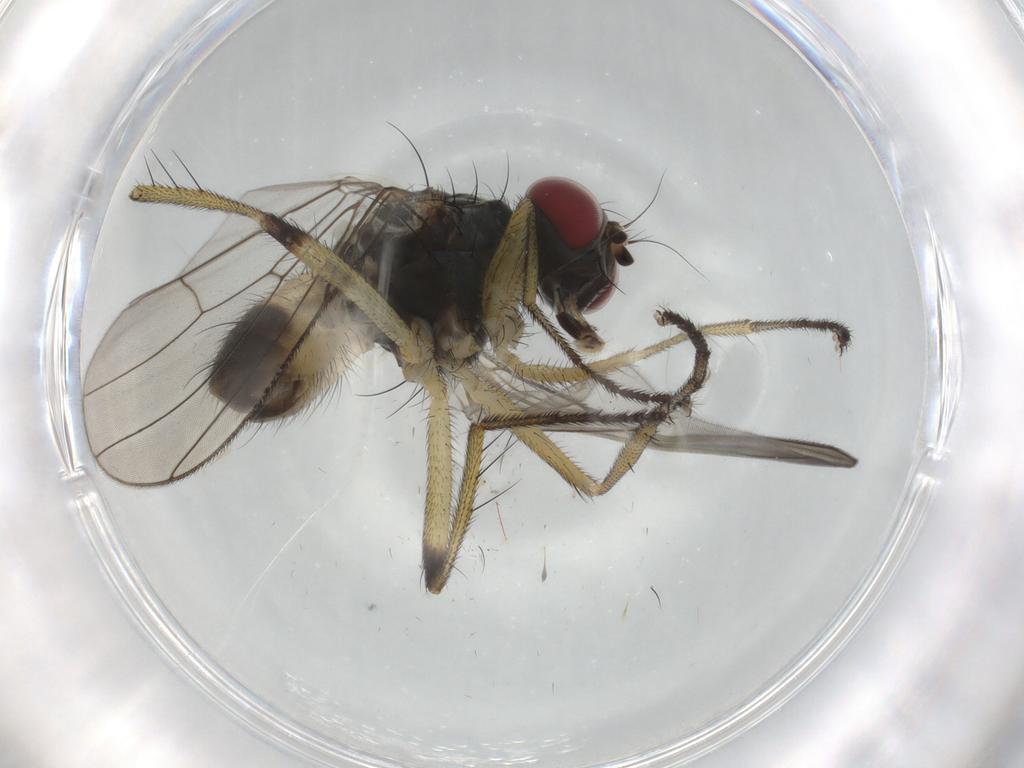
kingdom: Animalia
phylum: Arthropoda
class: Insecta
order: Diptera
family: Muscidae
